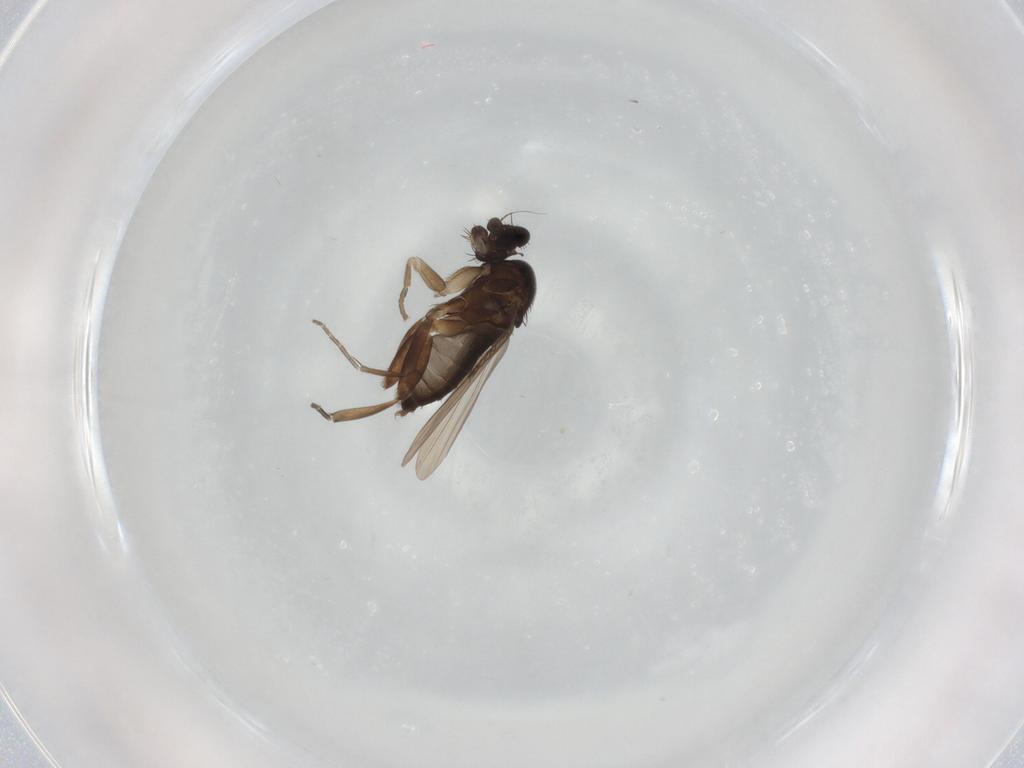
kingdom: Animalia
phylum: Arthropoda
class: Insecta
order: Diptera
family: Phoridae
